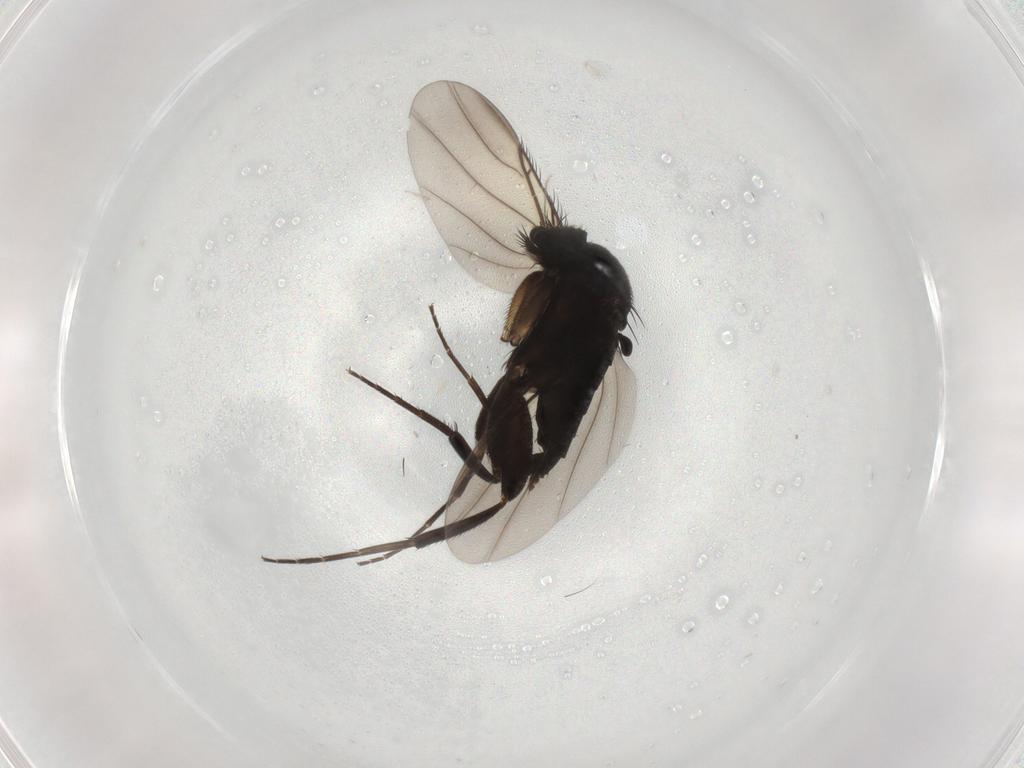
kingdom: Animalia
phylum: Arthropoda
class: Insecta
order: Diptera
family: Phoridae
